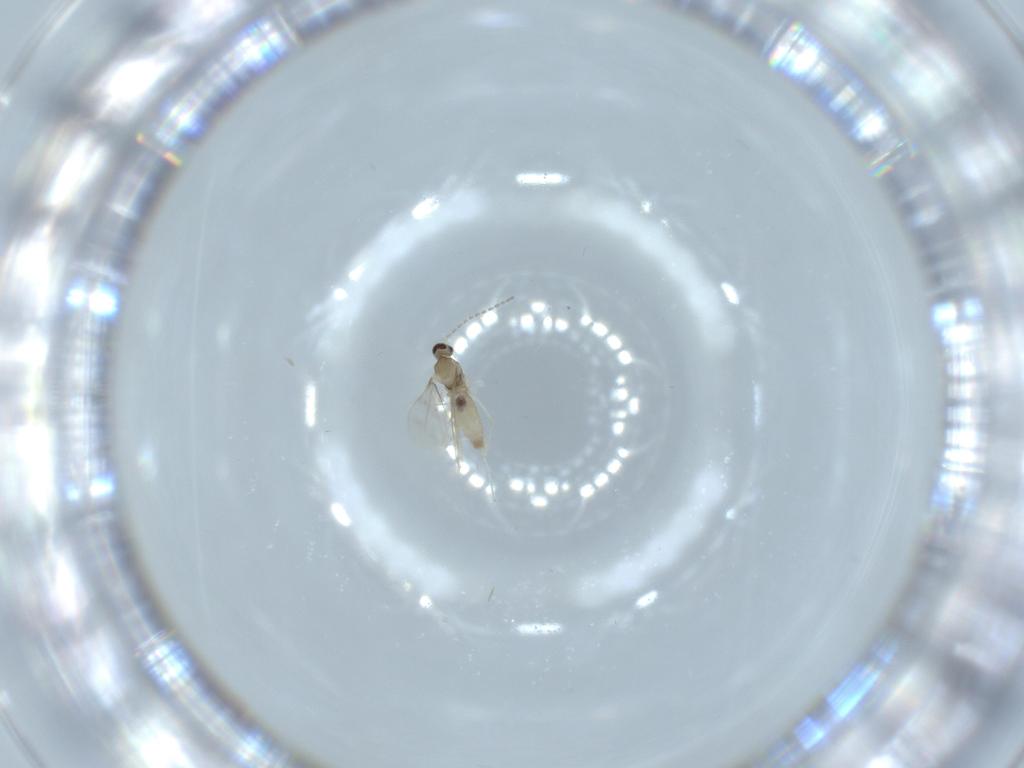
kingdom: Animalia
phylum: Arthropoda
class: Insecta
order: Diptera
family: Cecidomyiidae
